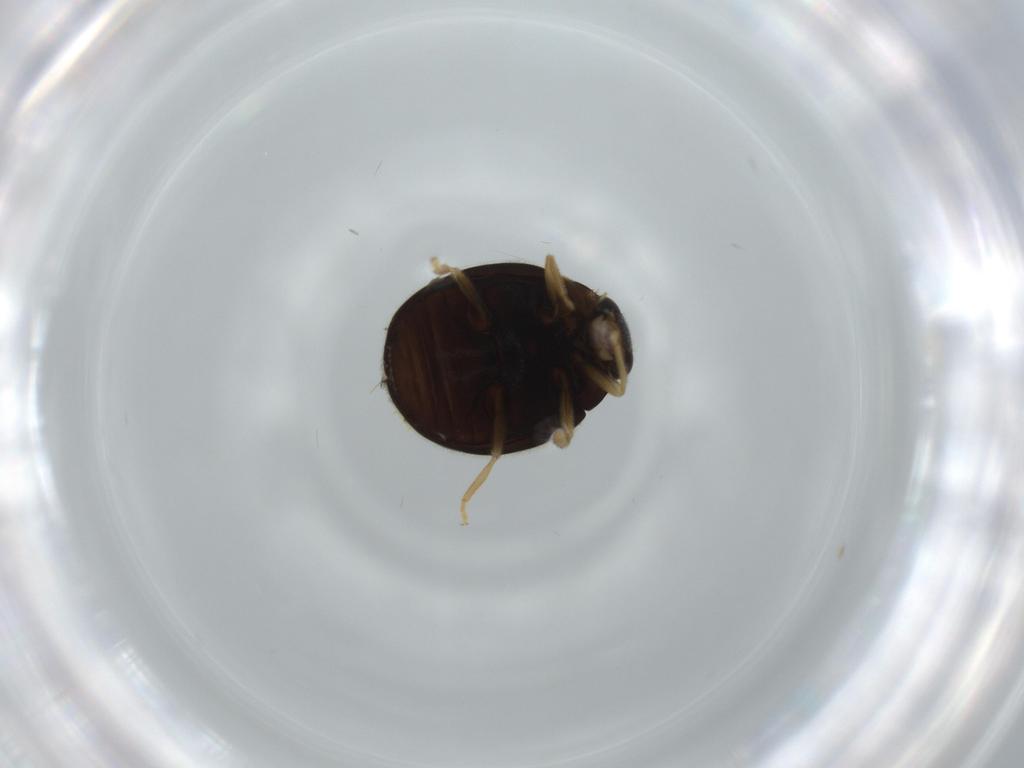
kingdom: Animalia
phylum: Arthropoda
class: Insecta
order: Coleoptera
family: Coccinellidae
